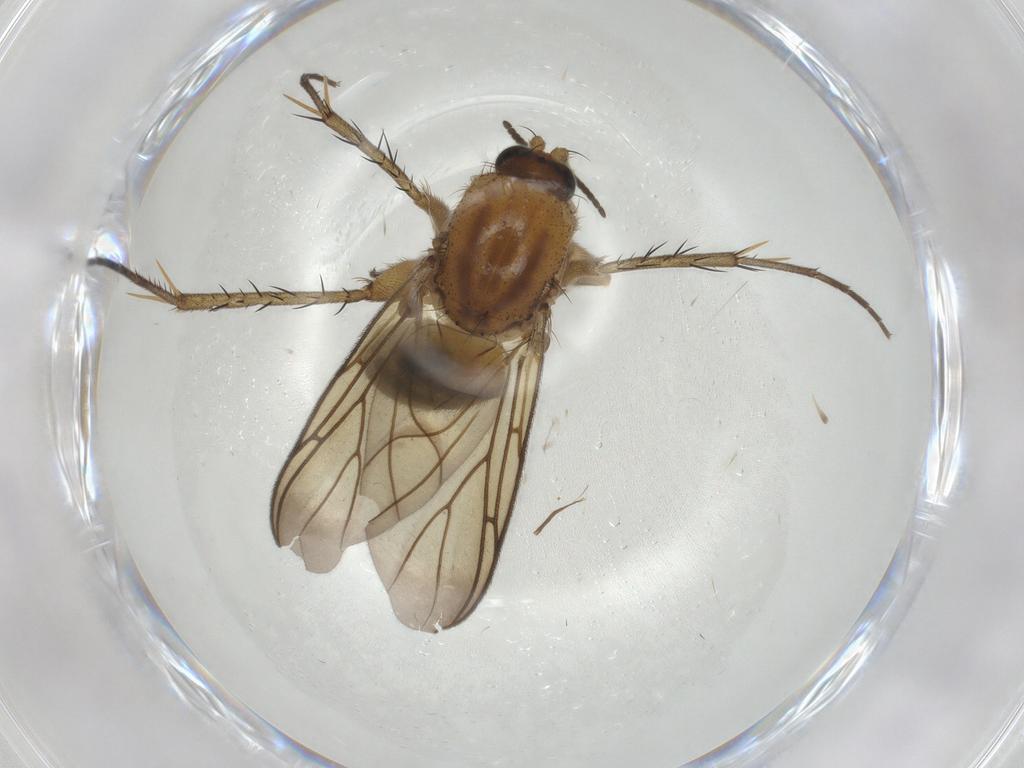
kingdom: Animalia
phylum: Arthropoda
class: Insecta
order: Diptera
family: Mycetophilidae
